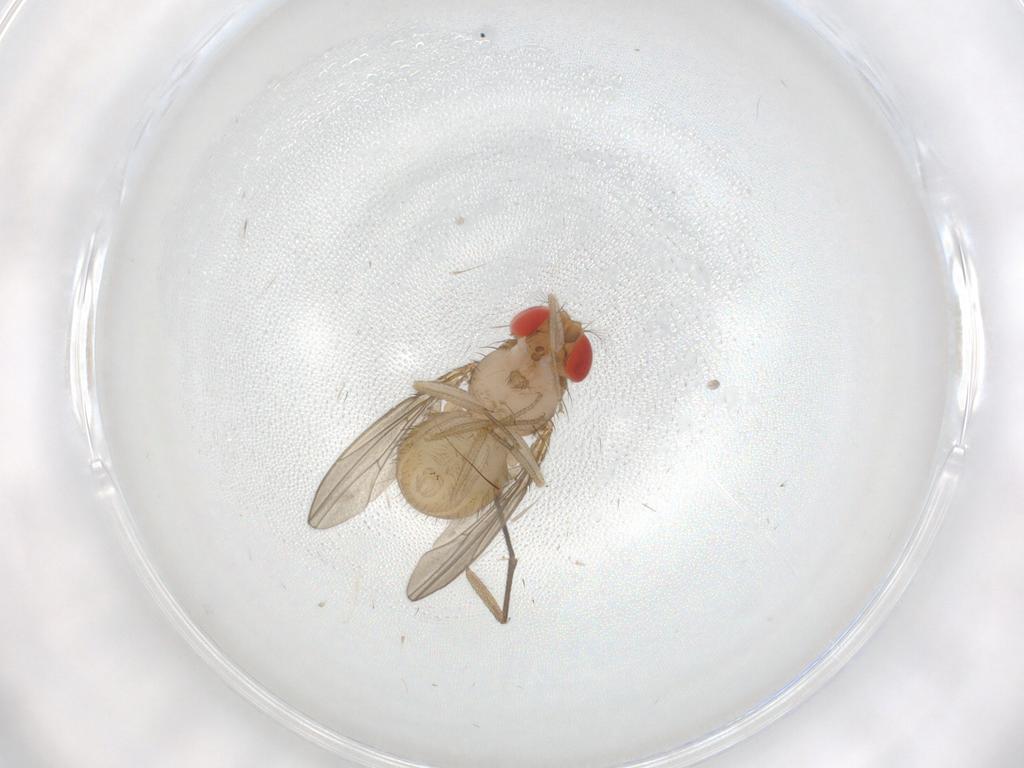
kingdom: Animalia
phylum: Arthropoda
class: Insecta
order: Diptera
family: Drosophilidae
